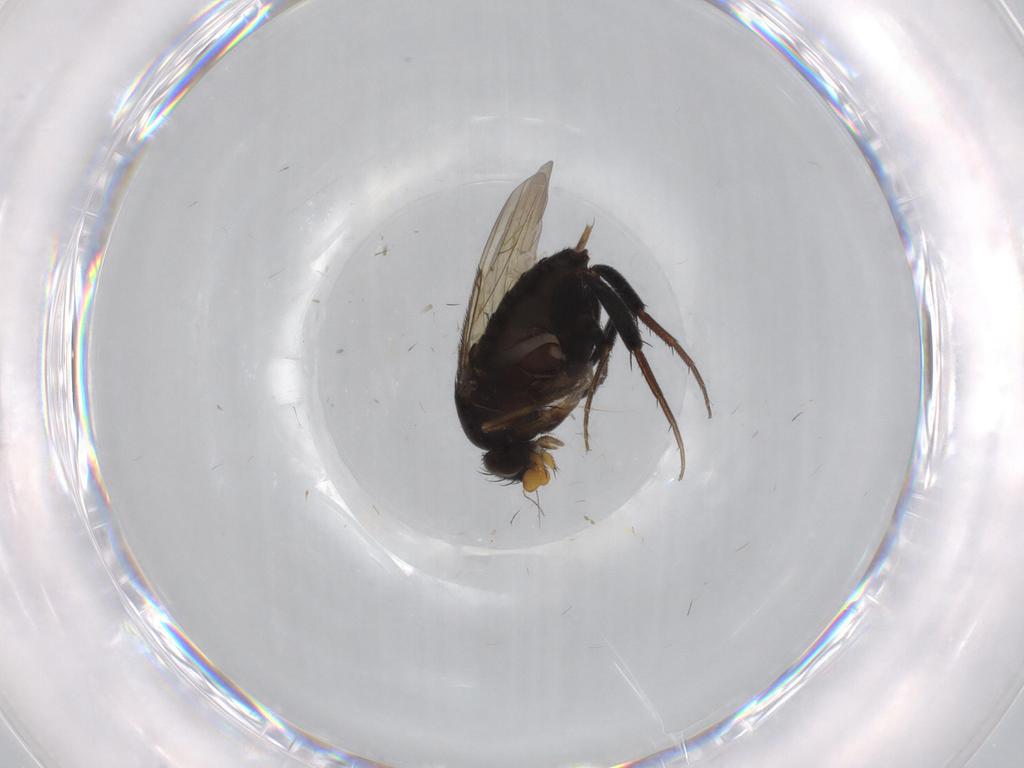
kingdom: Animalia
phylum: Arthropoda
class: Insecta
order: Diptera
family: Phoridae
